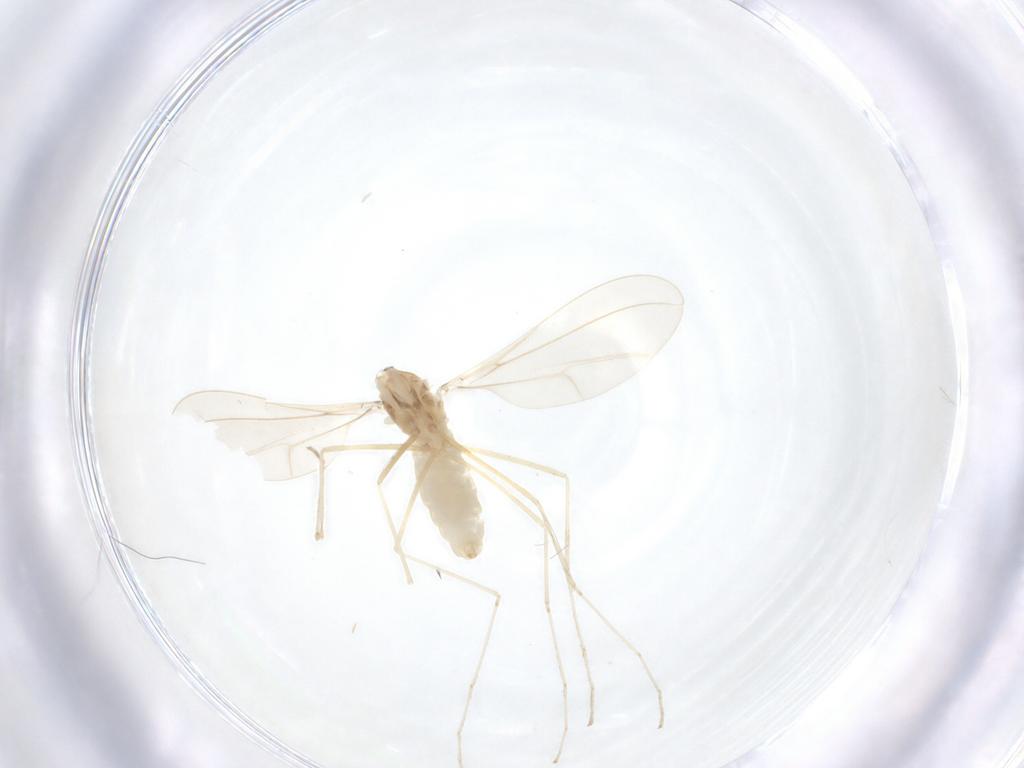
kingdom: Animalia
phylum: Arthropoda
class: Insecta
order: Diptera
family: Cecidomyiidae
